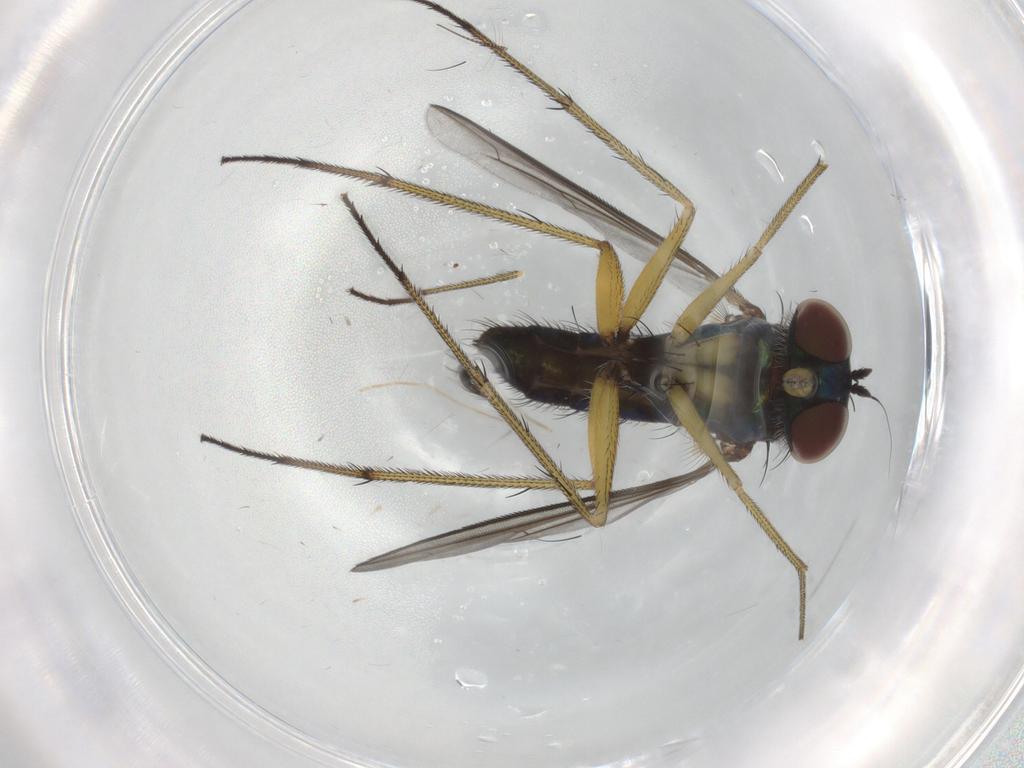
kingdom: Animalia
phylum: Arthropoda
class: Insecta
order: Diptera
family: Dolichopodidae
